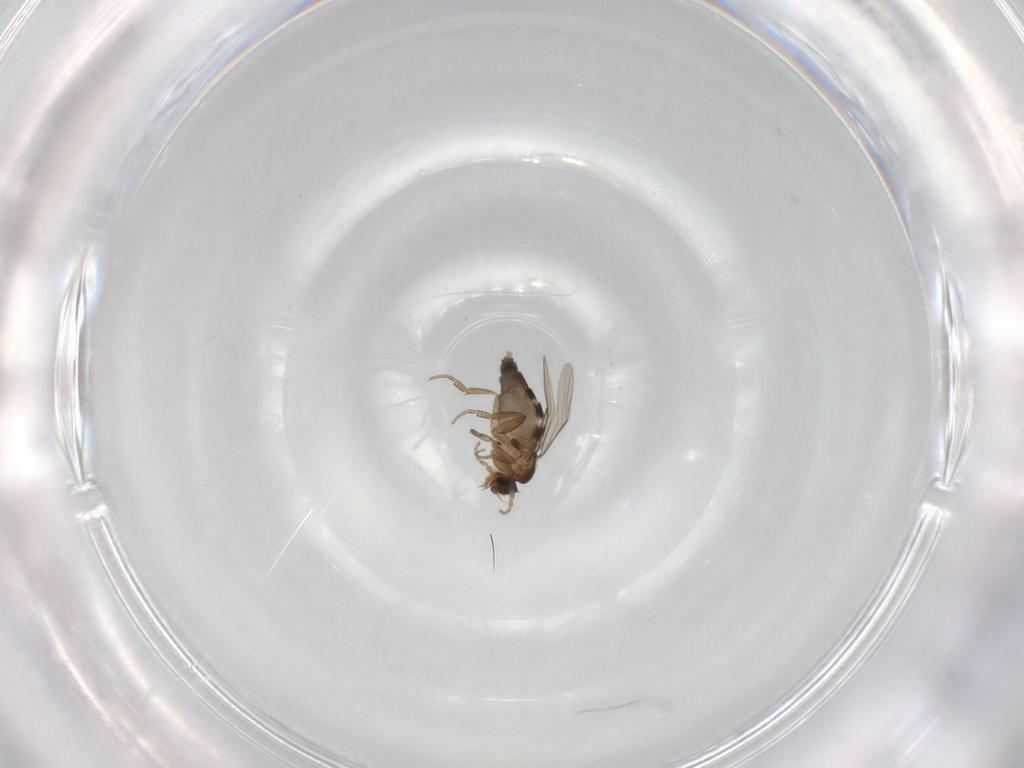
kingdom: Animalia
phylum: Arthropoda
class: Insecta
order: Diptera
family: Phoridae
